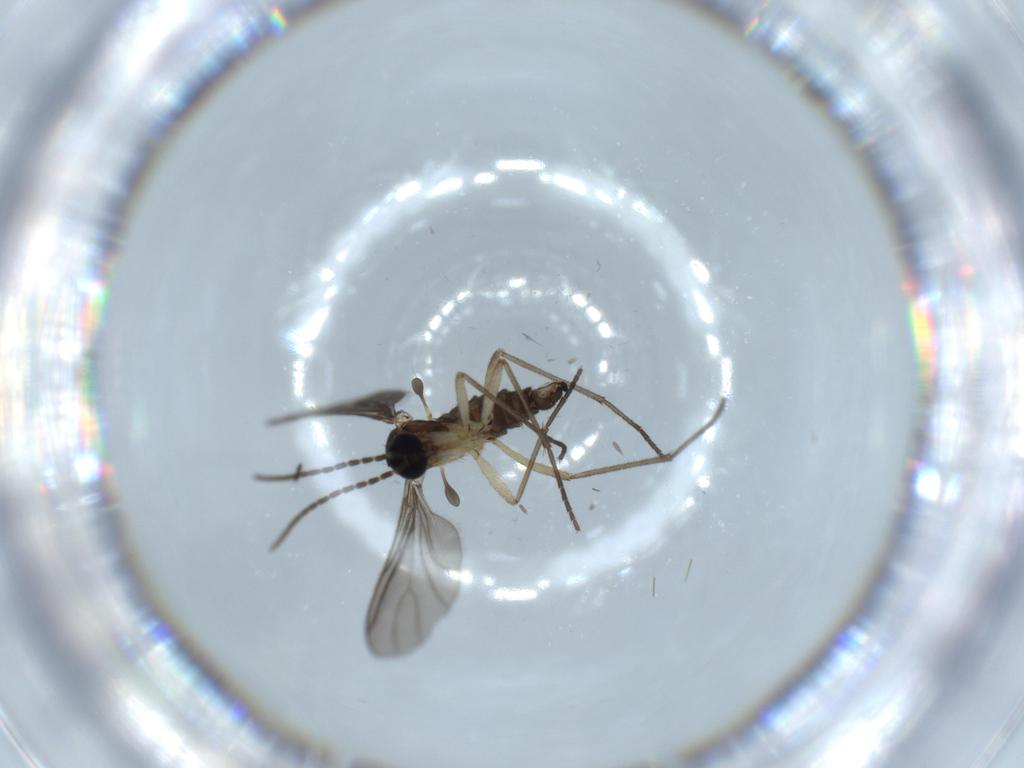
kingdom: Animalia
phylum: Arthropoda
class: Insecta
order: Diptera
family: Sciaridae
